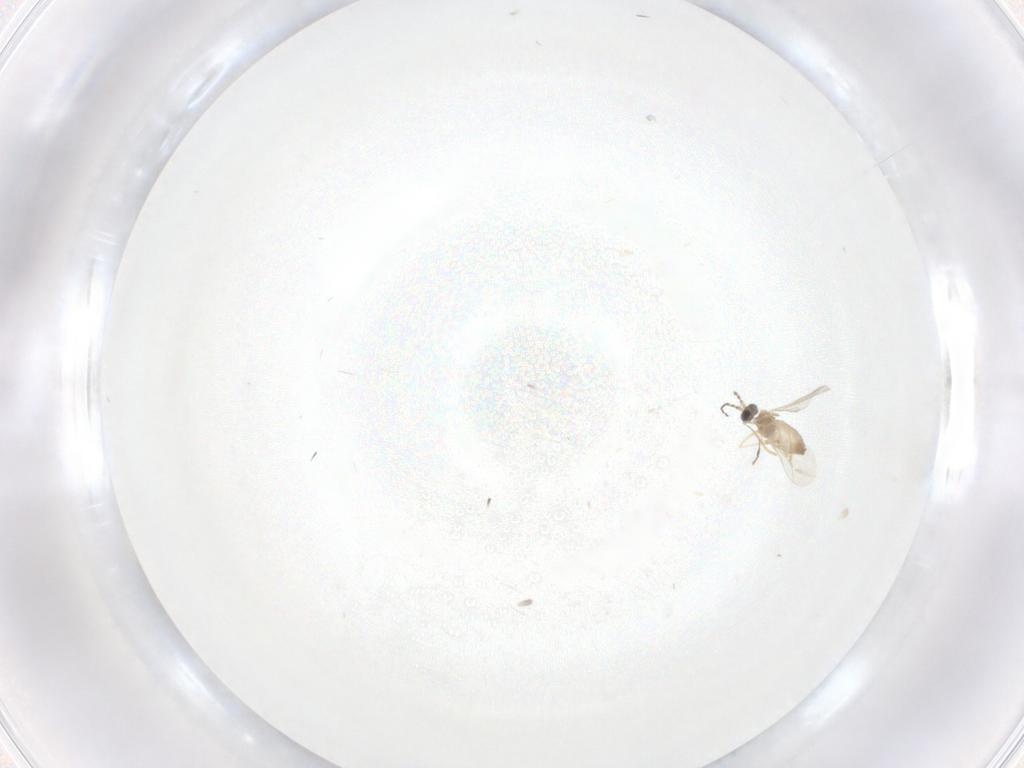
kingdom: Animalia
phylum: Arthropoda
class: Insecta
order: Diptera
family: Cecidomyiidae
